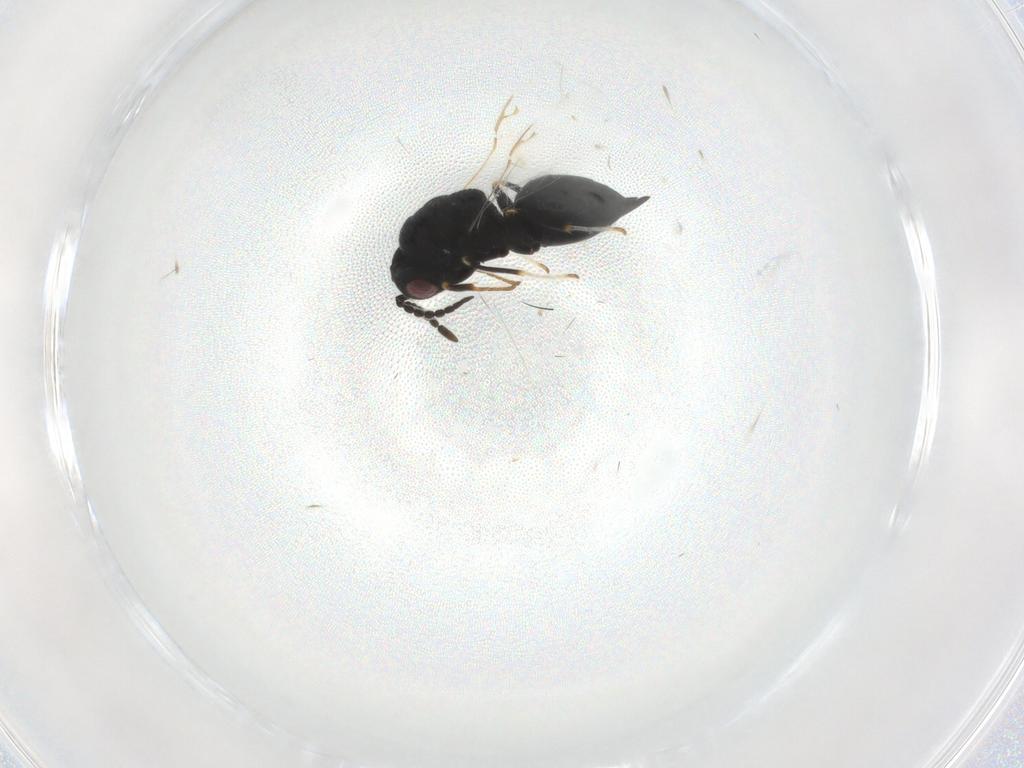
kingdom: Animalia
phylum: Arthropoda
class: Insecta
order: Hymenoptera
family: Eurytomidae
